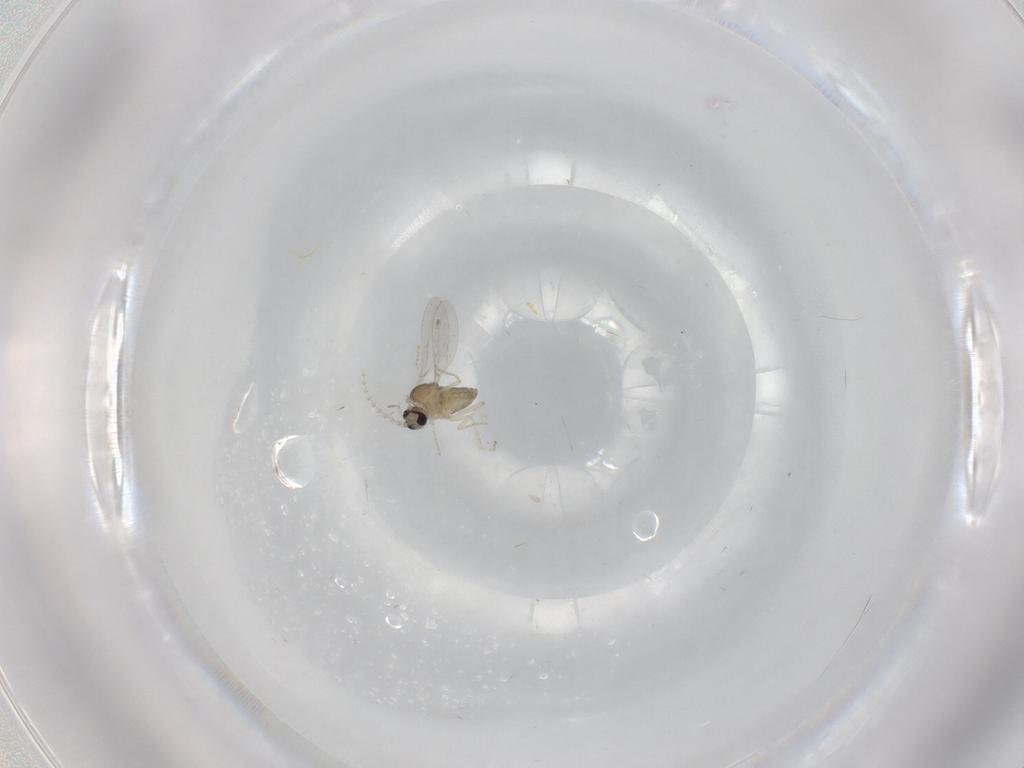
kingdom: Animalia
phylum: Arthropoda
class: Insecta
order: Diptera
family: Cecidomyiidae
